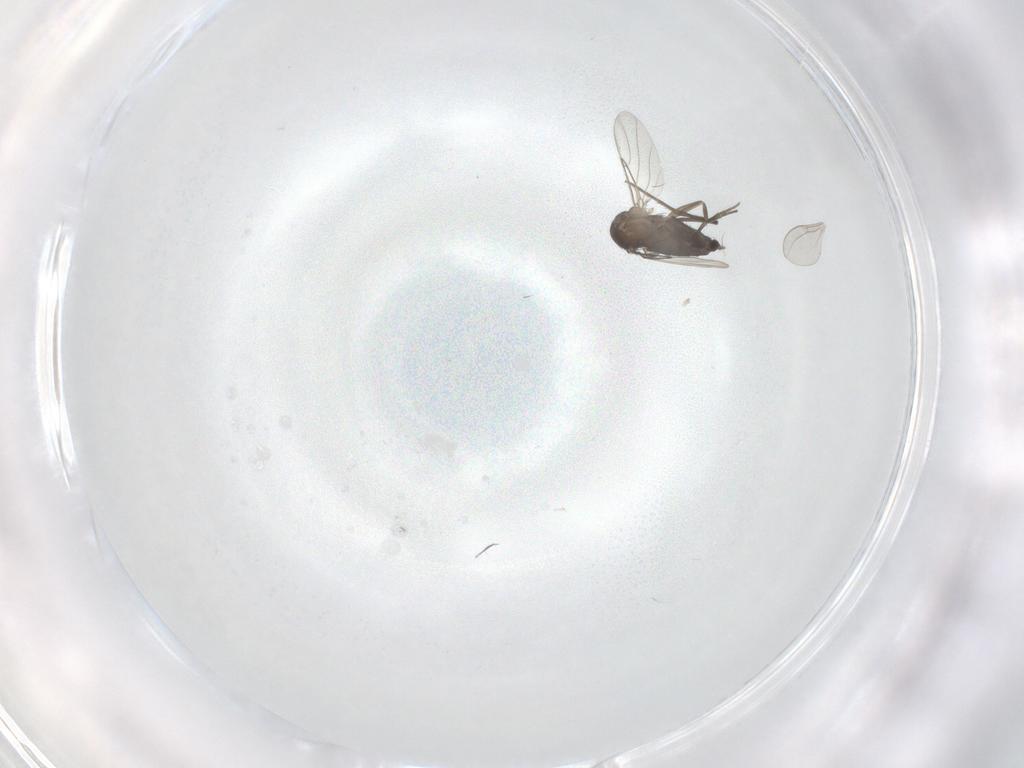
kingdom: Animalia
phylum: Arthropoda
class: Insecta
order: Diptera
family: Phoridae
